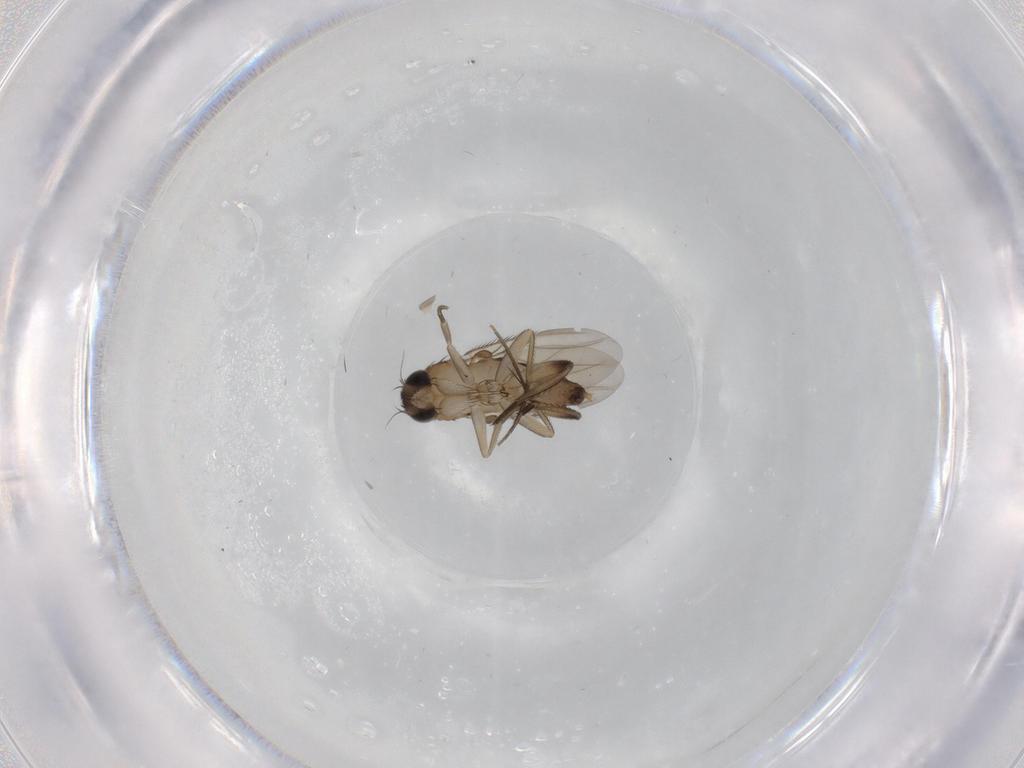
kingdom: Animalia
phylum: Arthropoda
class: Insecta
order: Diptera
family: Phoridae
